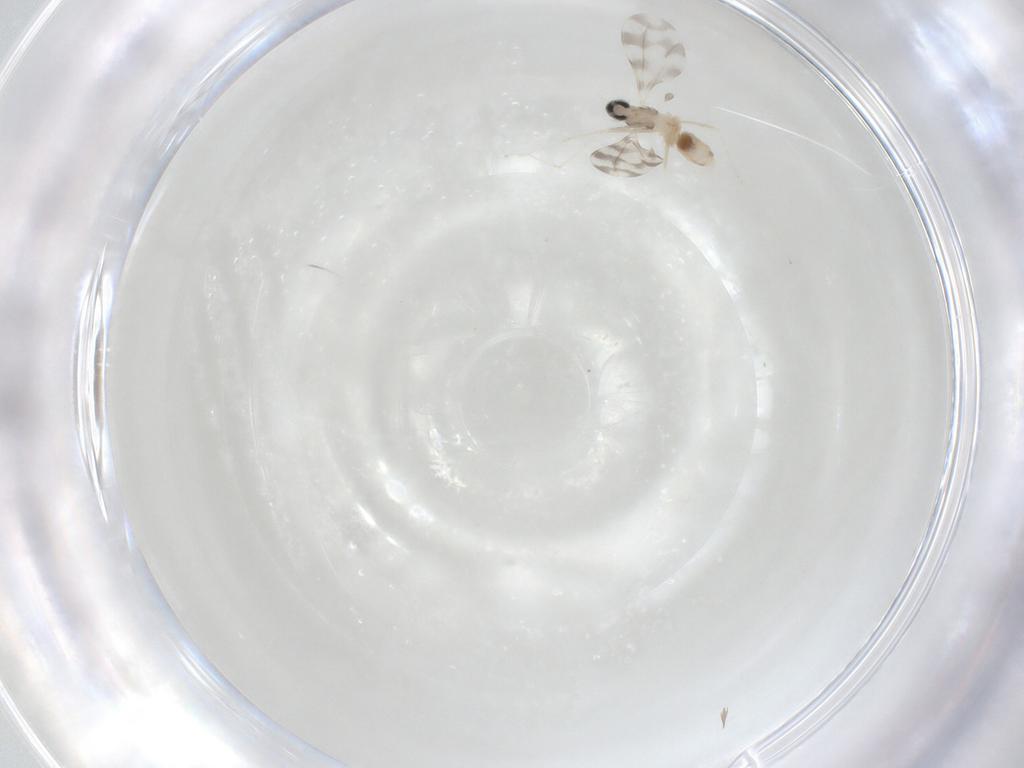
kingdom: Animalia
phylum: Arthropoda
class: Insecta
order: Diptera
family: Cecidomyiidae
